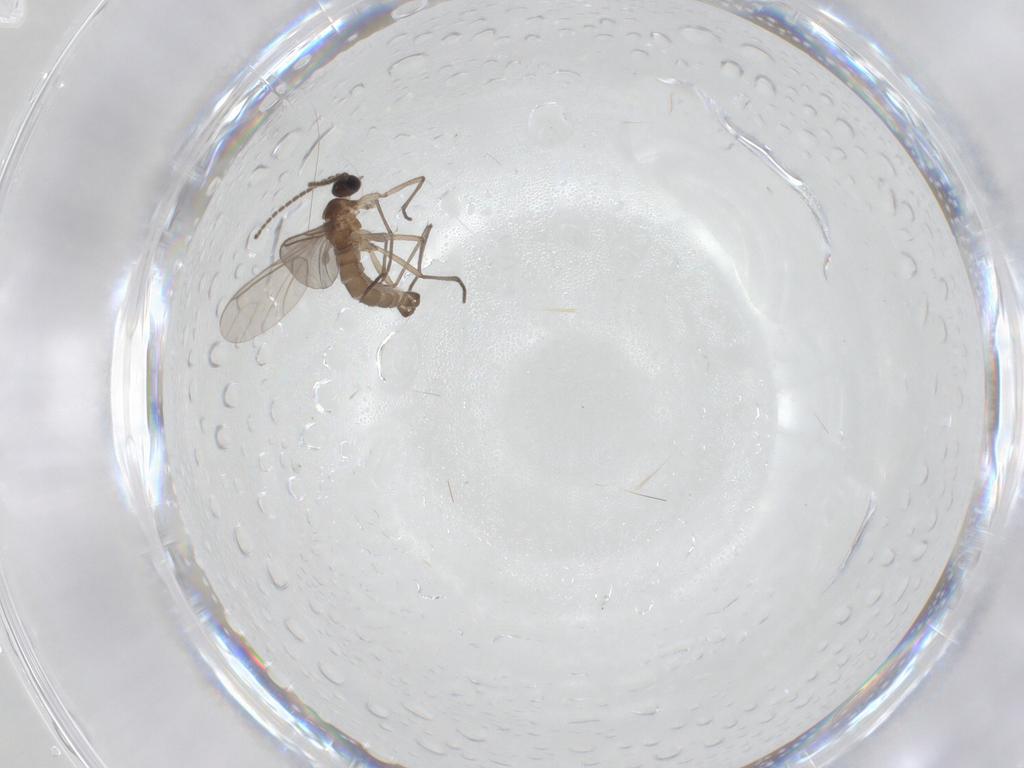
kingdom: Animalia
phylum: Arthropoda
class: Insecta
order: Diptera
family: Sciaridae
